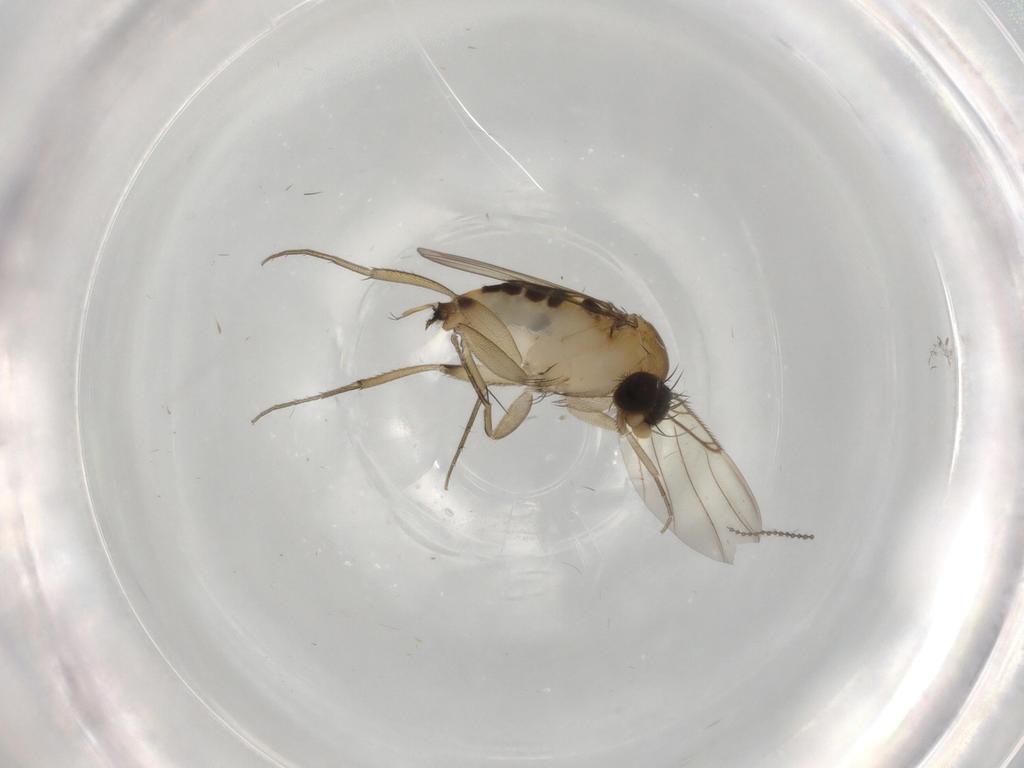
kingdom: Animalia
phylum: Arthropoda
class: Insecta
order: Diptera
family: Phoridae
